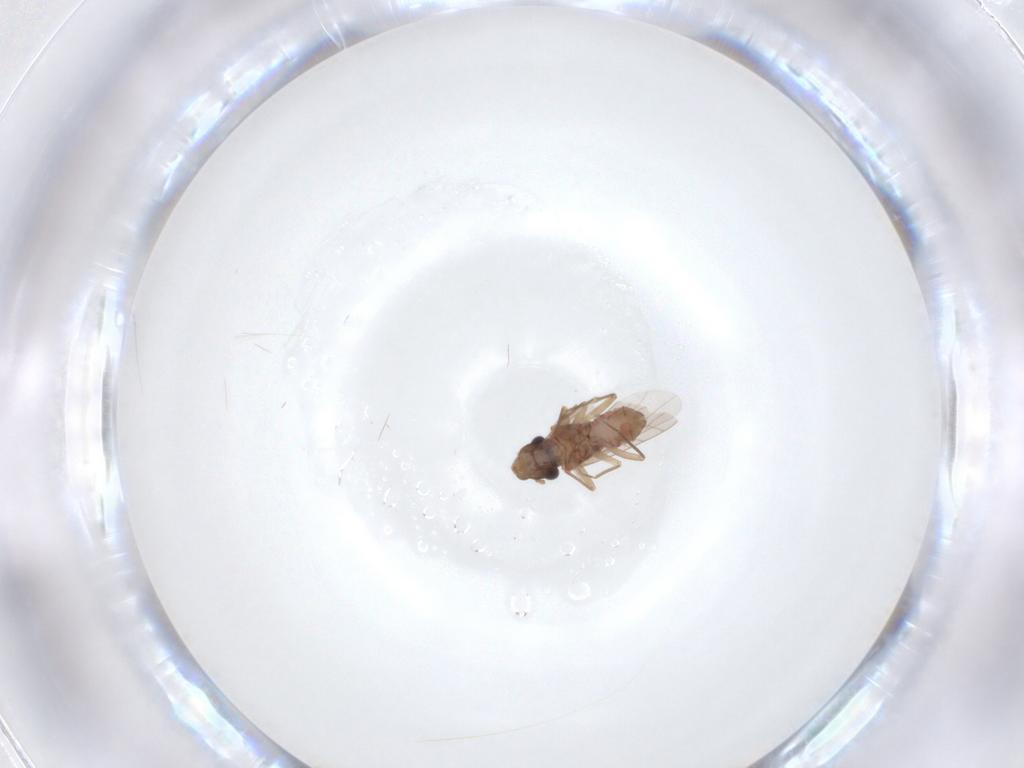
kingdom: Animalia
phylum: Arthropoda
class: Insecta
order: Psocodea
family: Lepidopsocidae
